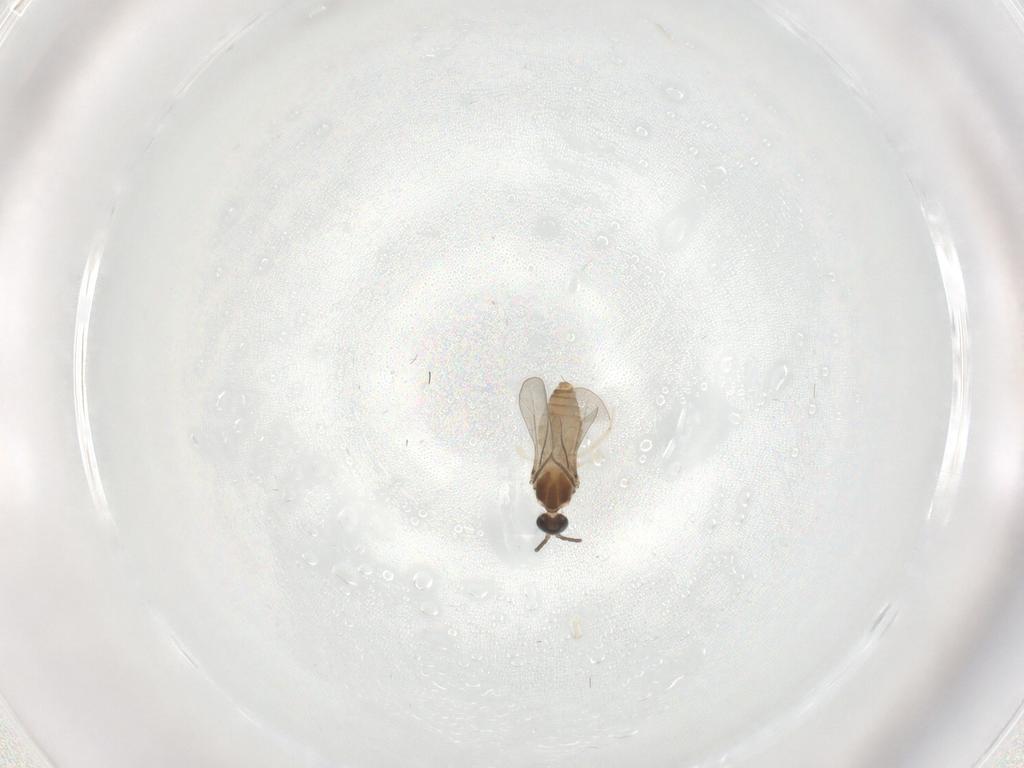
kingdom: Animalia
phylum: Arthropoda
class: Insecta
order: Diptera
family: Cecidomyiidae
